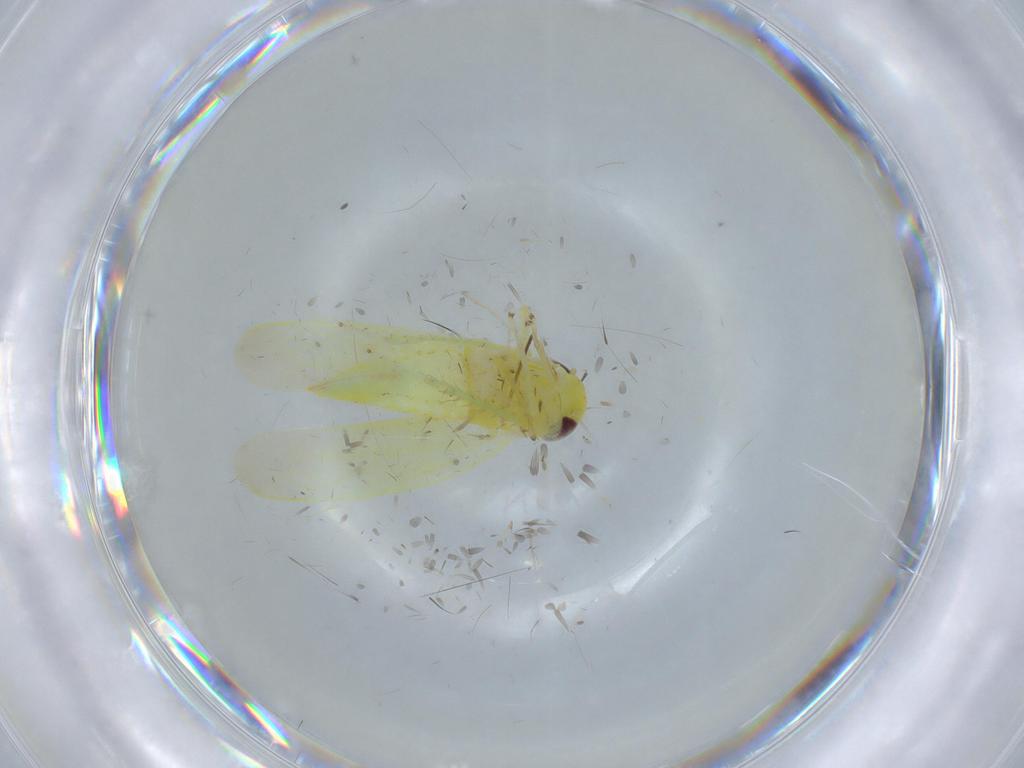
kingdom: Animalia
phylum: Arthropoda
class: Insecta
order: Hemiptera
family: Cicadellidae
